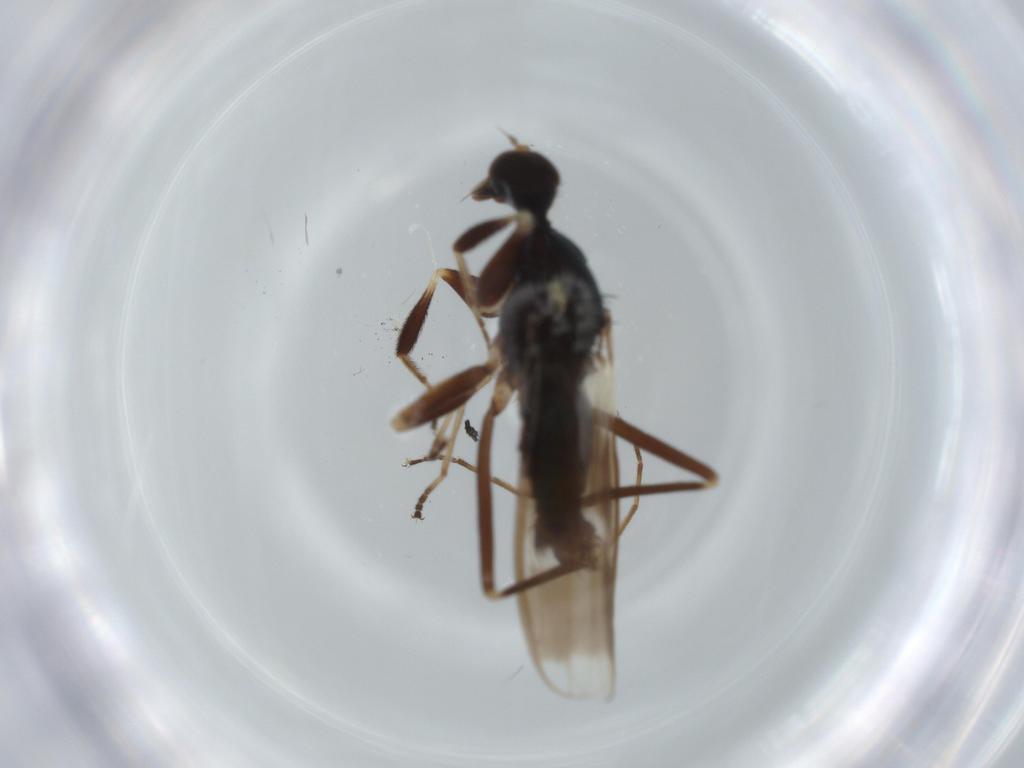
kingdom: Animalia
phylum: Arthropoda
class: Insecta
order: Diptera
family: Hybotidae
